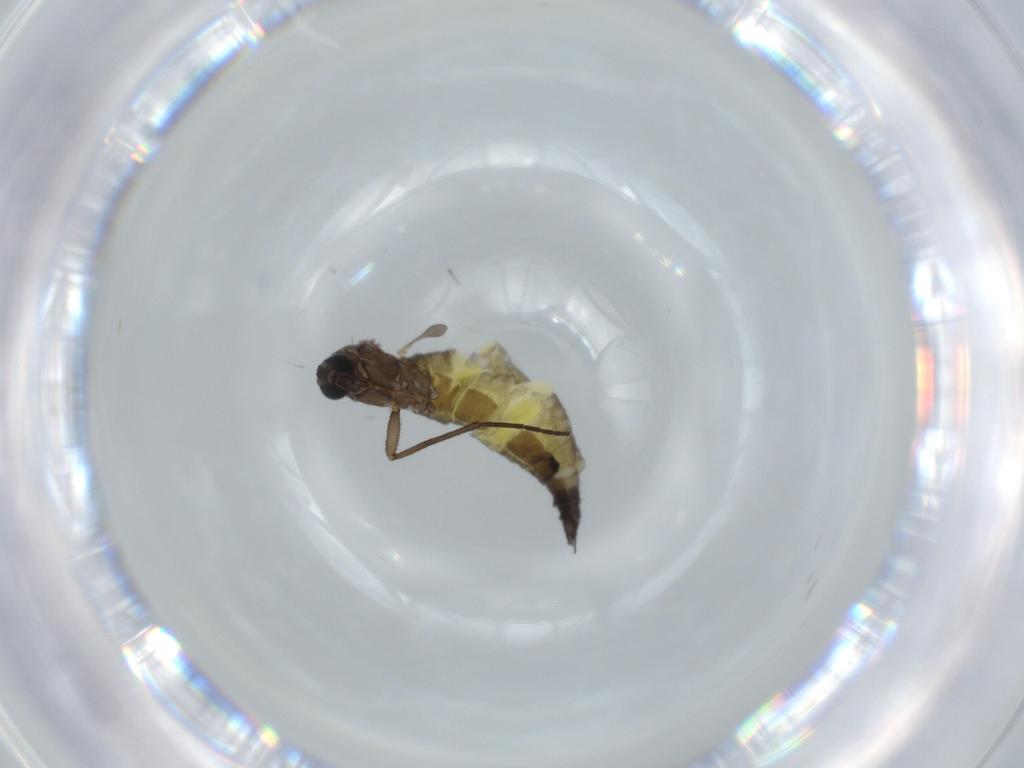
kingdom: Animalia
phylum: Arthropoda
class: Insecta
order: Diptera
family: Sciaridae
